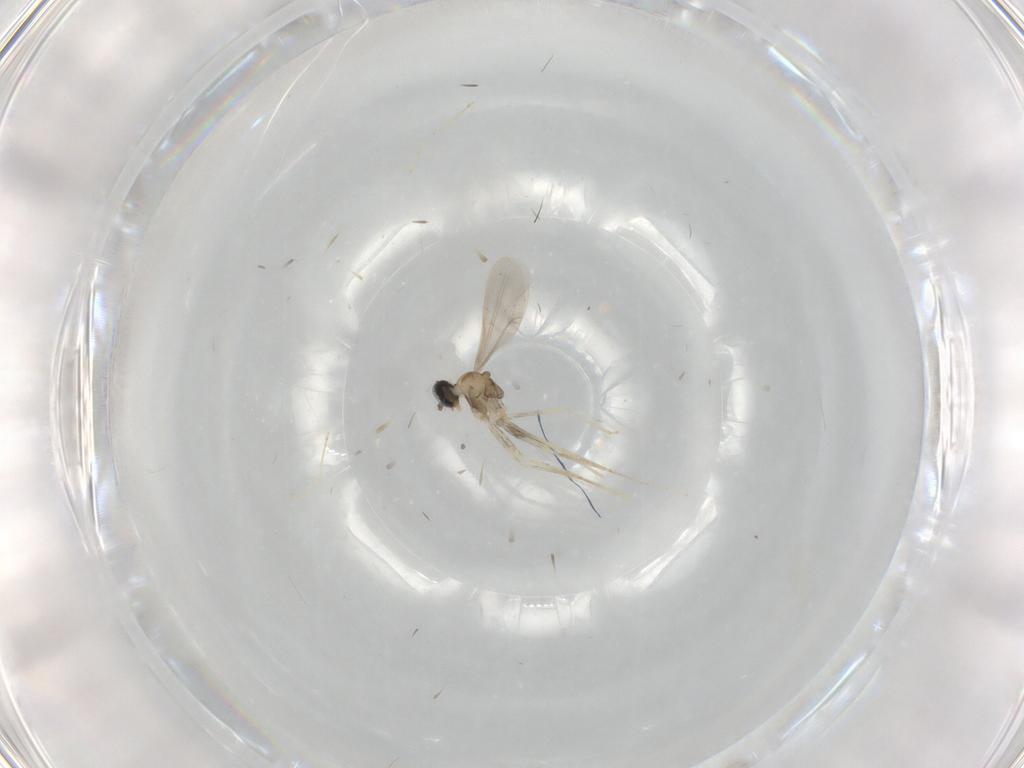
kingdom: Animalia
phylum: Arthropoda
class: Insecta
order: Diptera
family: Cecidomyiidae
